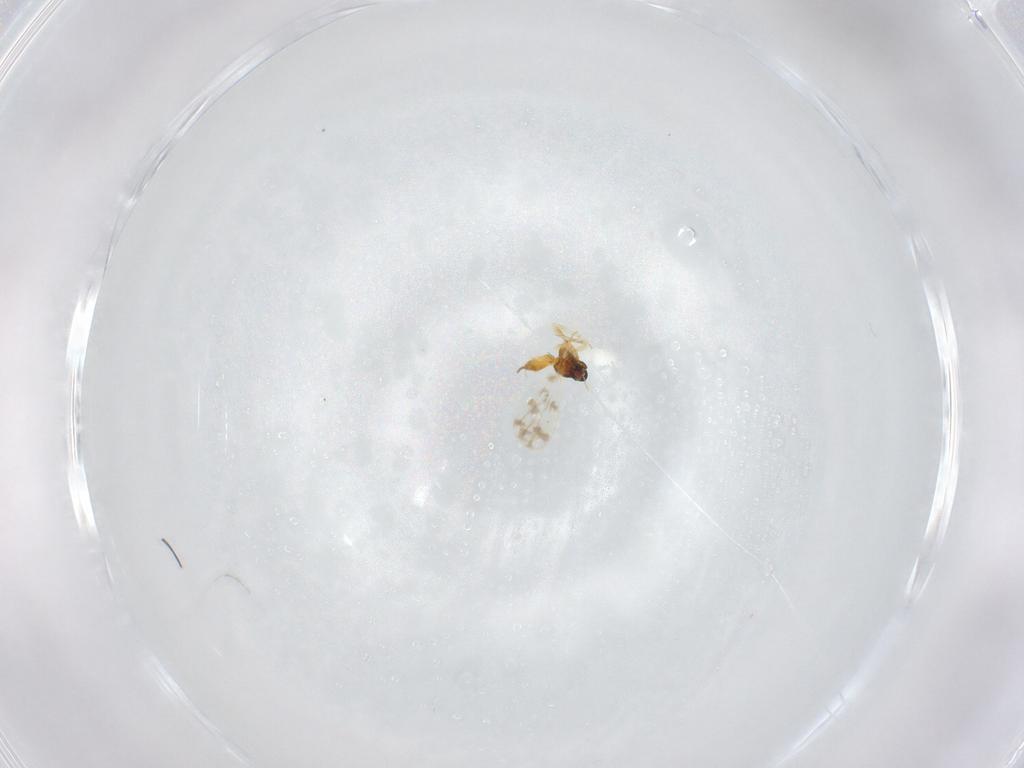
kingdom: Animalia
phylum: Arthropoda
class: Insecta
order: Hemiptera
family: Aleyrodidae
